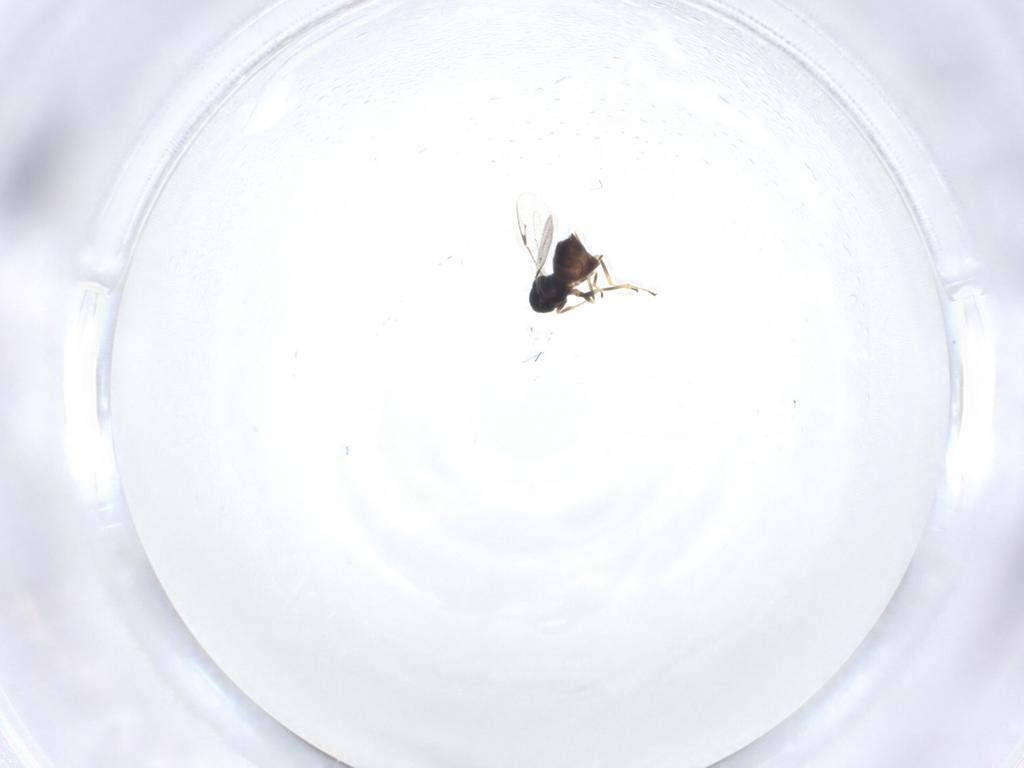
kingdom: Animalia
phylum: Arthropoda
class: Insecta
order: Hymenoptera
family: Pteromalidae
